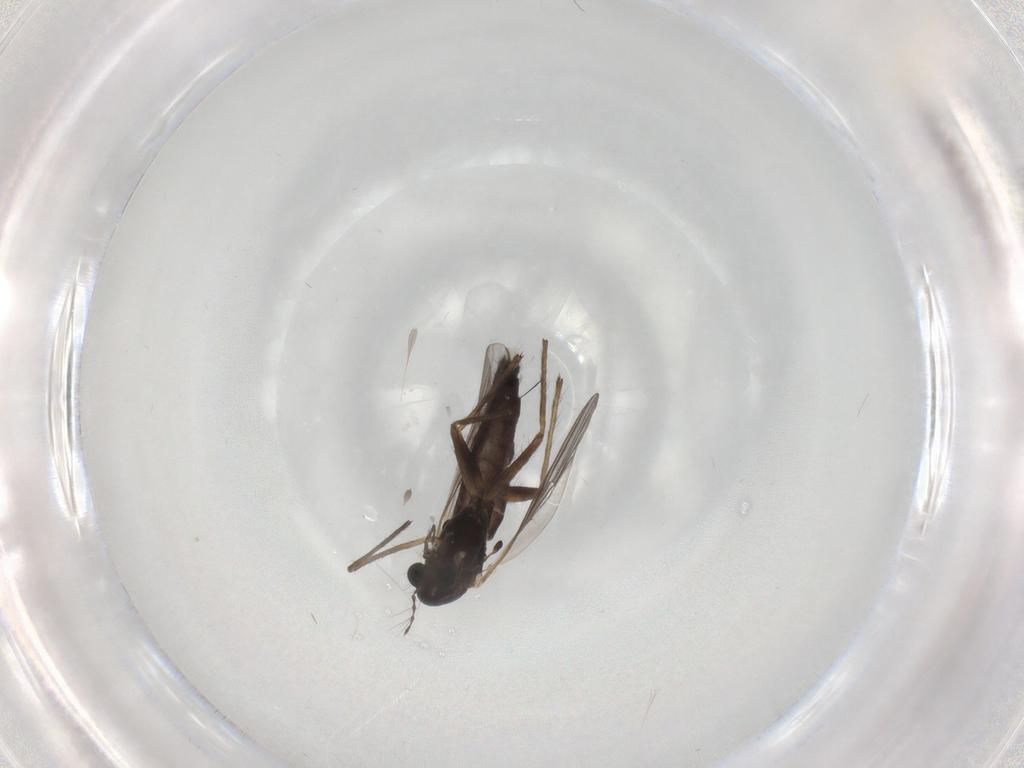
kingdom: Animalia
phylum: Arthropoda
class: Insecta
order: Diptera
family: Chironomidae
